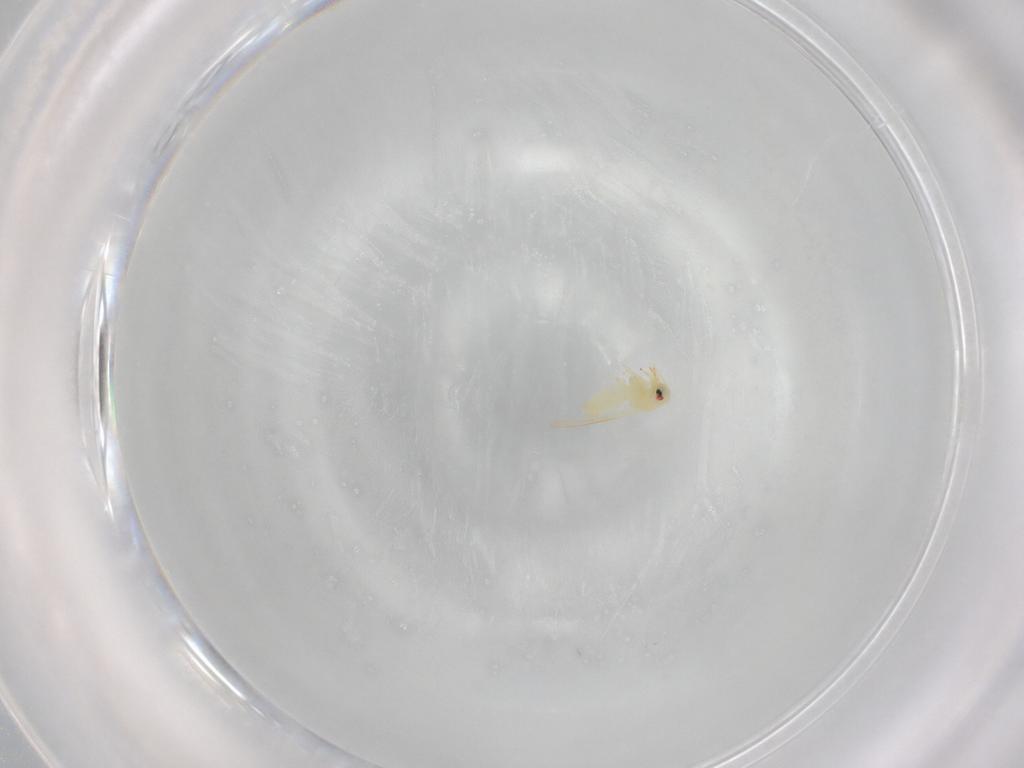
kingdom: Animalia
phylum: Arthropoda
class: Insecta
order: Hemiptera
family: Aleyrodidae
